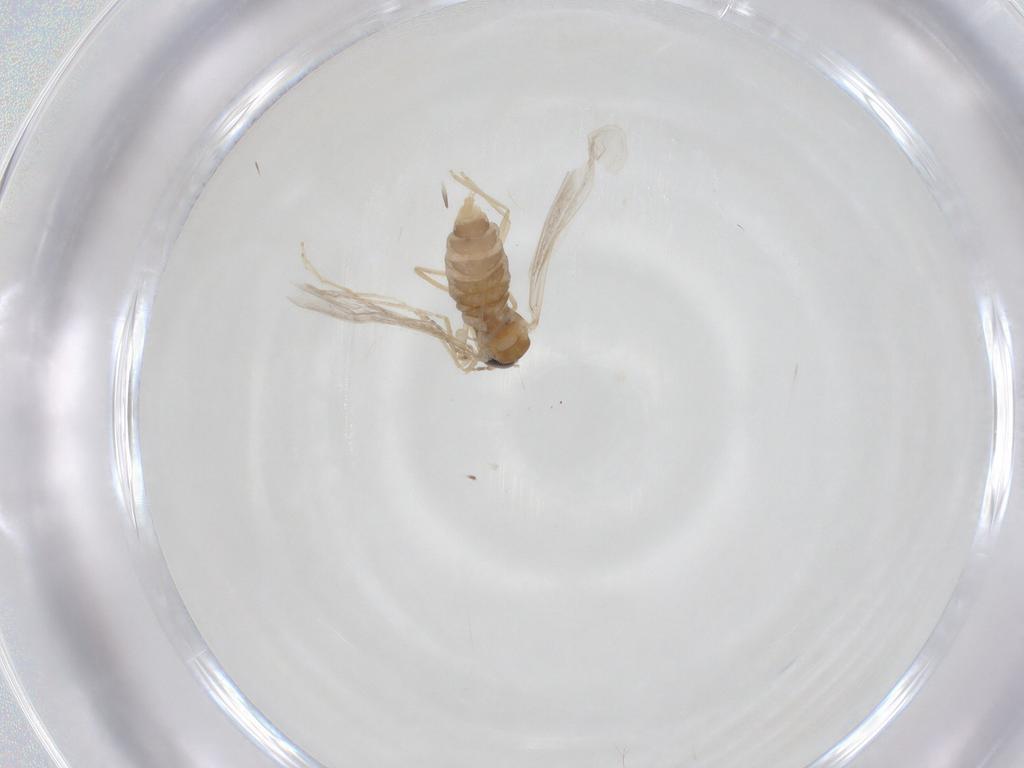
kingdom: Animalia
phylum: Arthropoda
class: Insecta
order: Diptera
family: Cecidomyiidae
